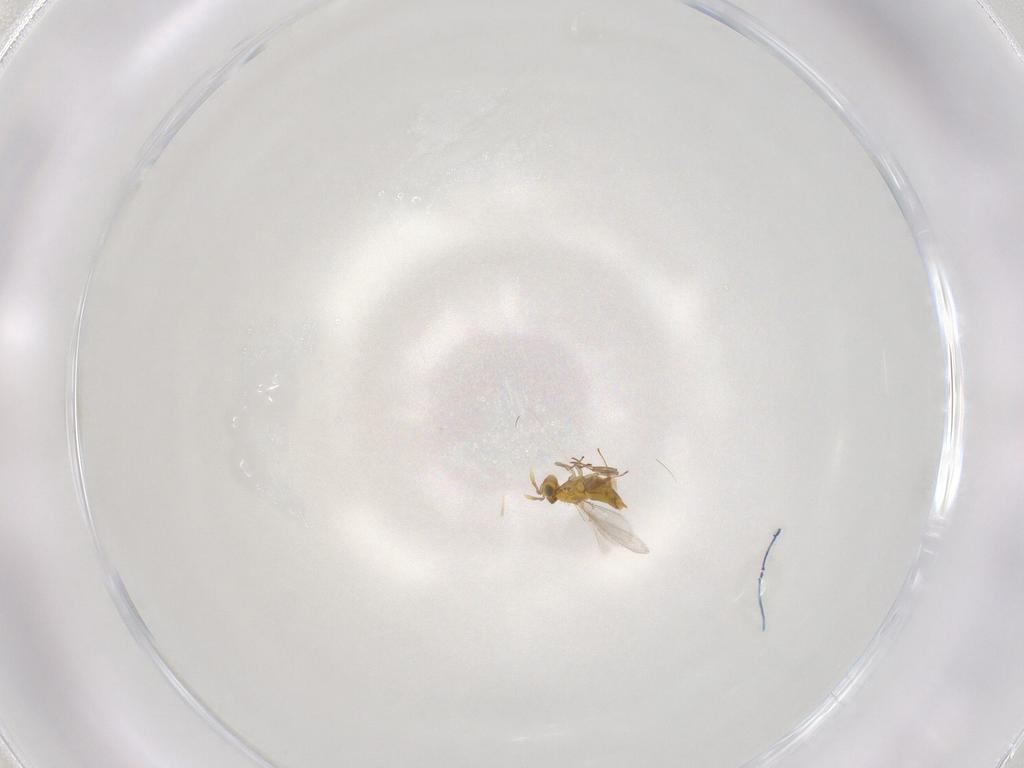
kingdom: Animalia
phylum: Arthropoda
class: Insecta
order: Hymenoptera
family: Aphelinidae
